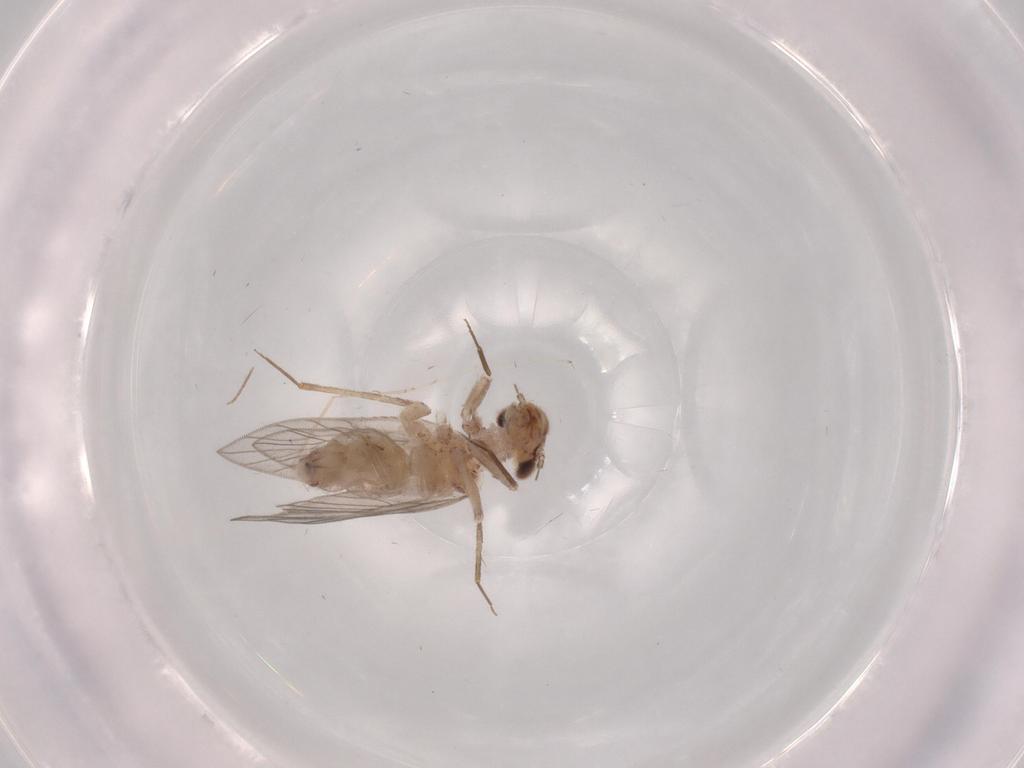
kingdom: Animalia
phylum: Arthropoda
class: Insecta
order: Psocodea
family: Lepidopsocidae
